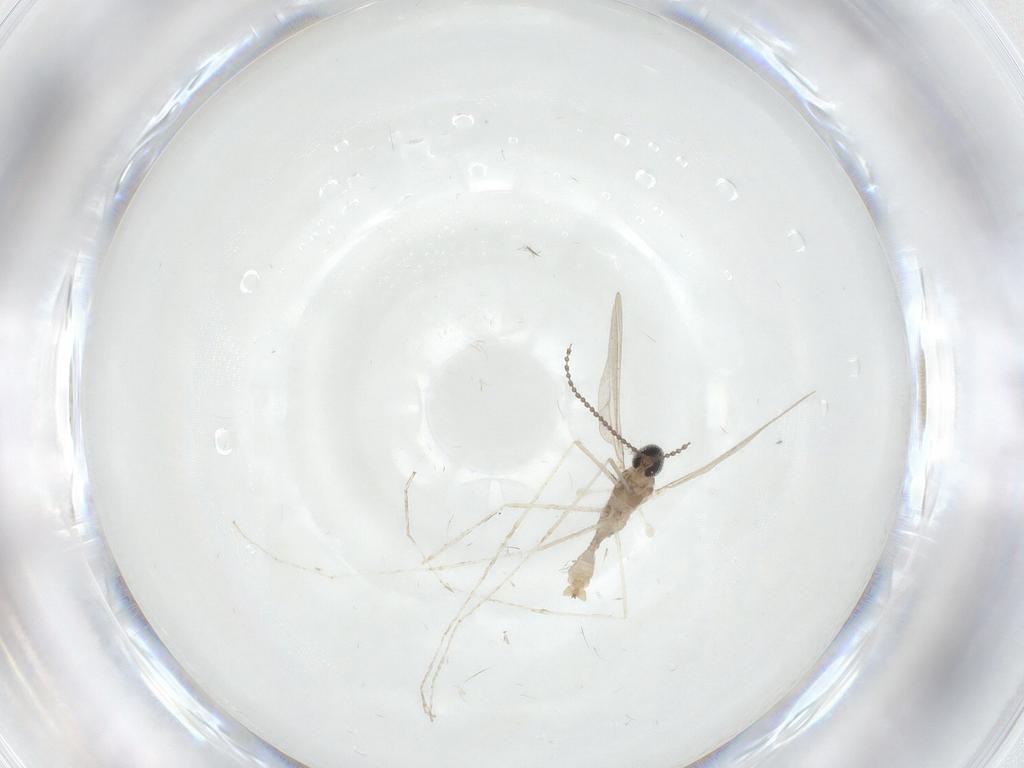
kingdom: Animalia
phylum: Arthropoda
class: Insecta
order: Diptera
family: Cecidomyiidae
